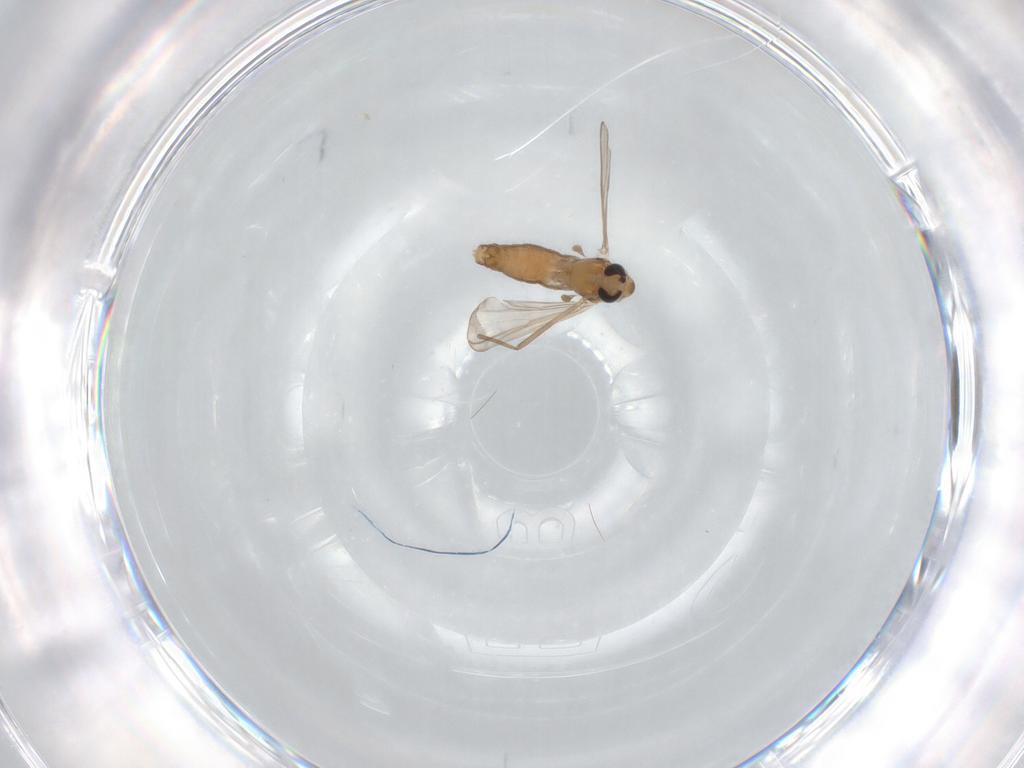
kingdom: Animalia
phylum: Arthropoda
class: Insecta
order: Diptera
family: Chironomidae
